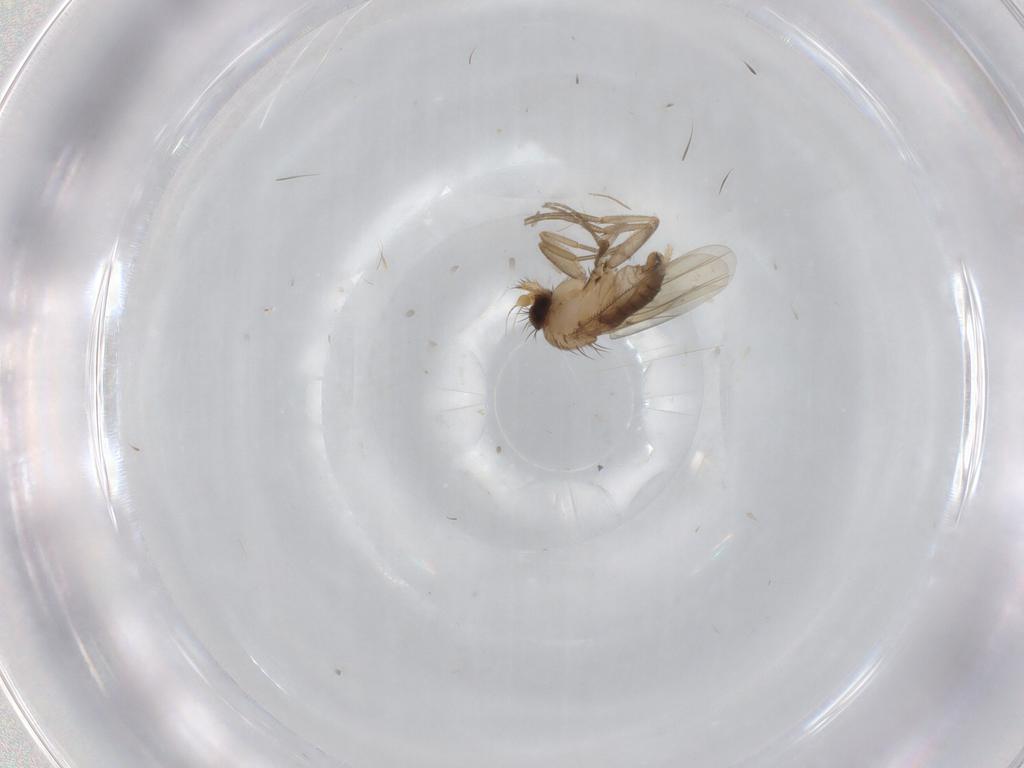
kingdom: Animalia
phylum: Arthropoda
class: Insecta
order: Diptera
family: Phoridae
